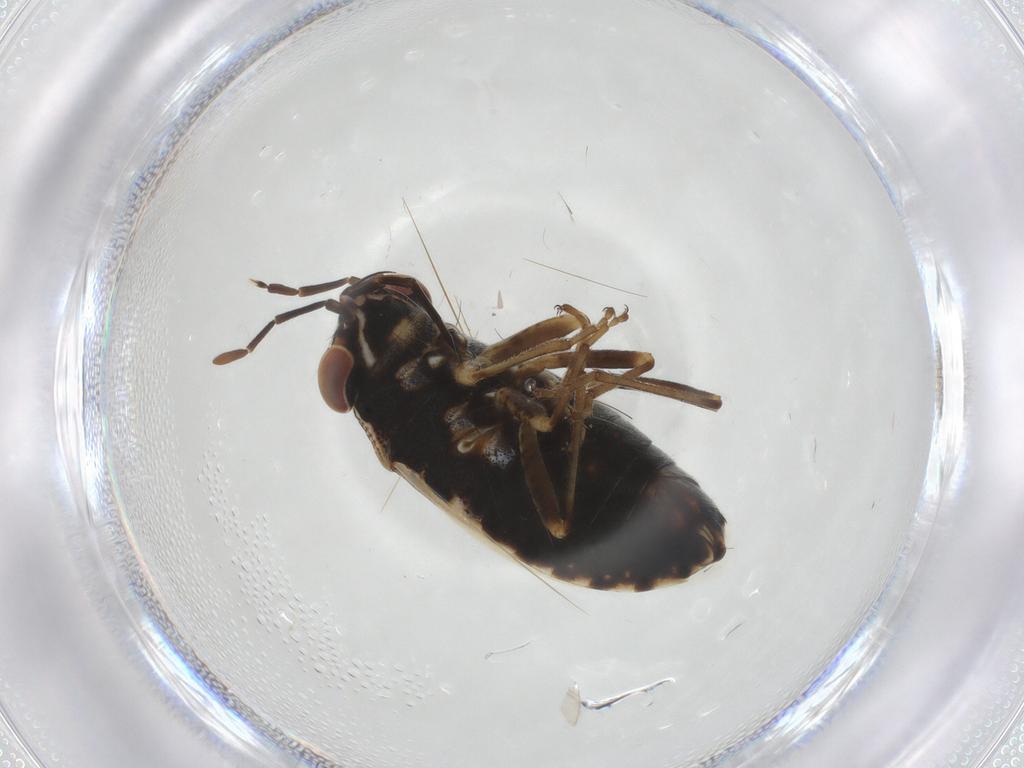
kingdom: Animalia
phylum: Arthropoda
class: Insecta
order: Hemiptera
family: Geocoridae
